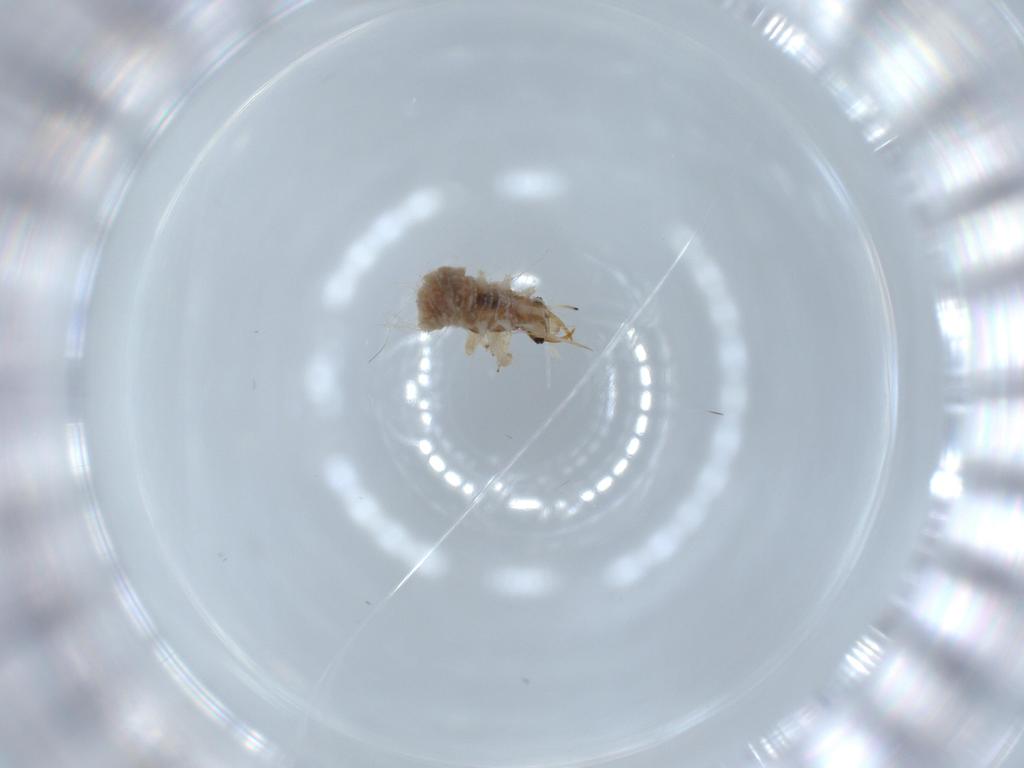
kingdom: Animalia
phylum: Arthropoda
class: Insecta
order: Neuroptera
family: Chrysopidae
